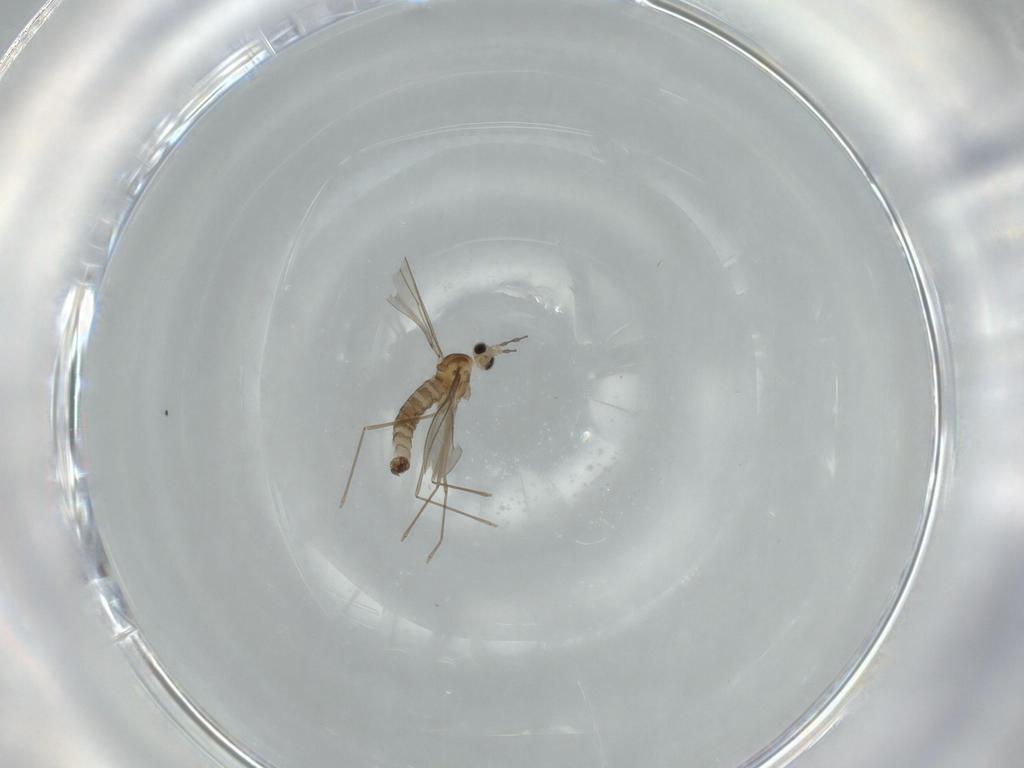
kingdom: Animalia
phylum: Arthropoda
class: Insecta
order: Diptera
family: Cecidomyiidae
